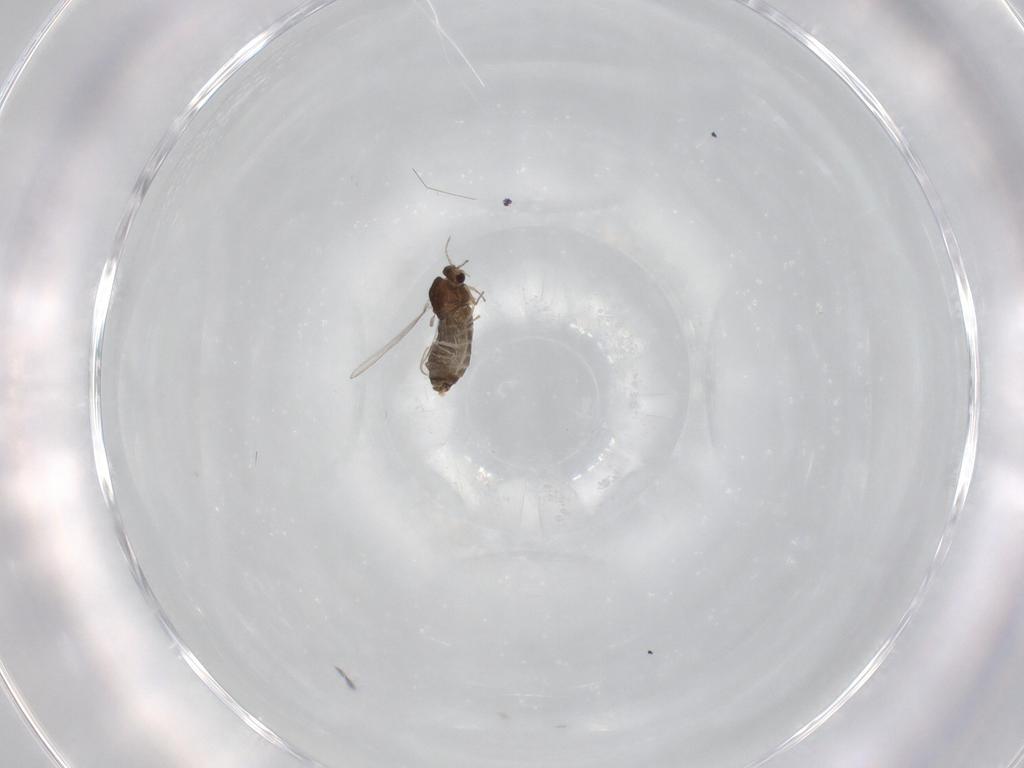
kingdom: Animalia
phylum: Arthropoda
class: Insecta
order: Diptera
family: Chironomidae
